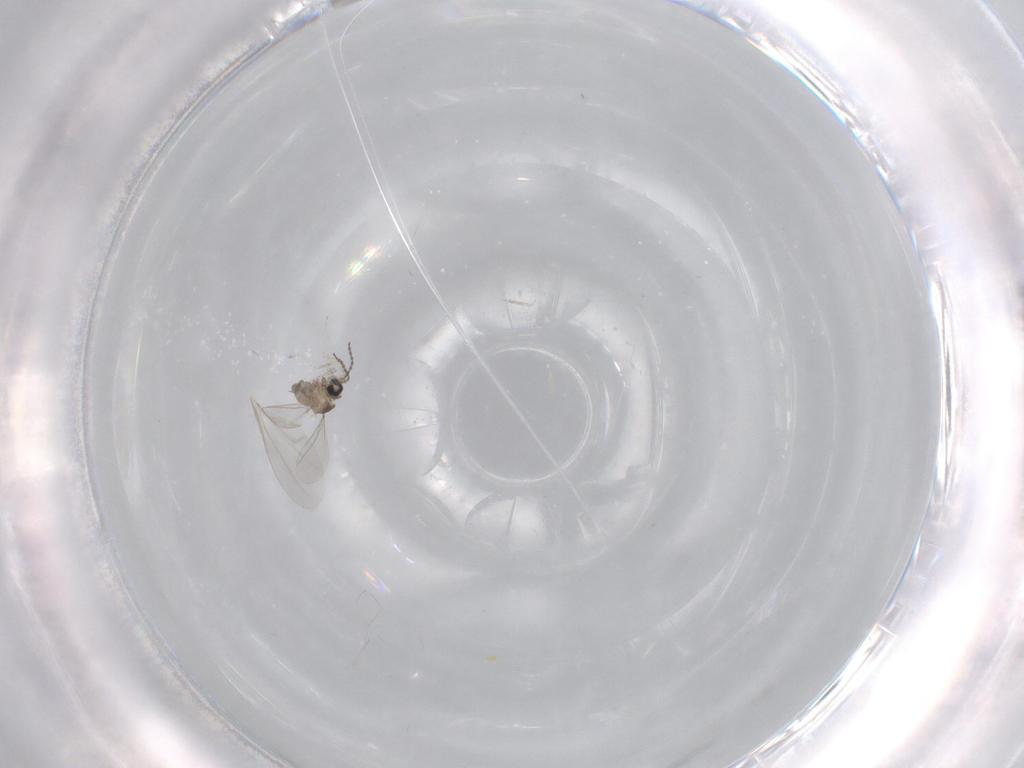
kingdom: Animalia
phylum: Arthropoda
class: Insecta
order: Diptera
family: Cecidomyiidae
